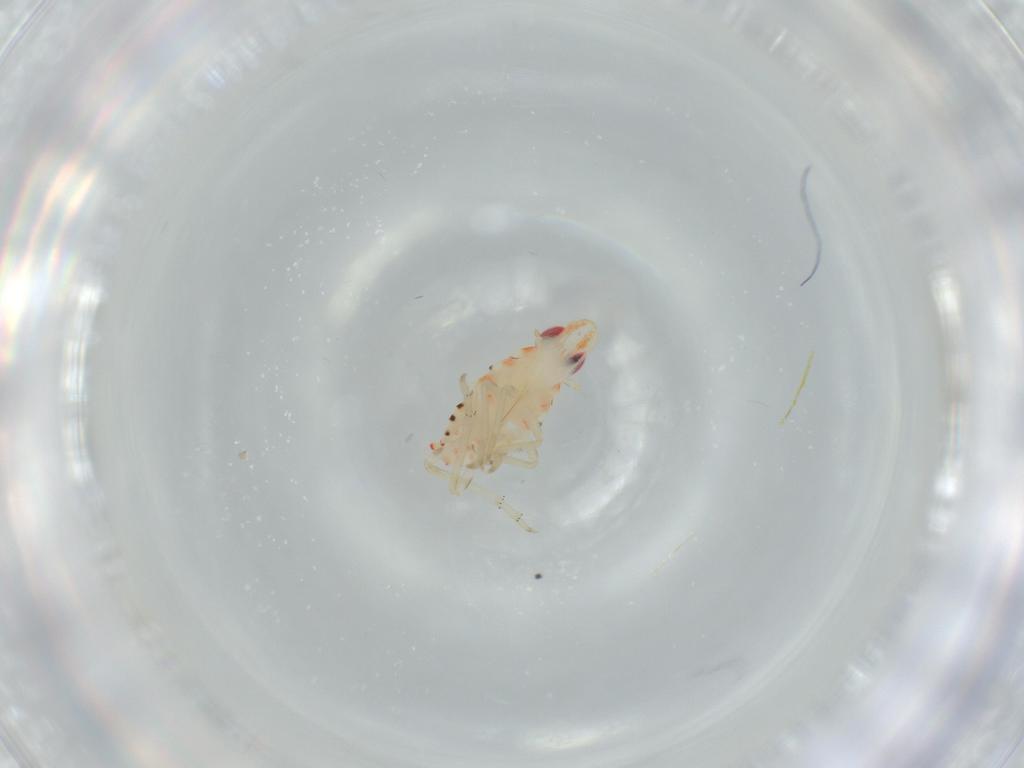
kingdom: Animalia
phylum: Arthropoda
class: Insecta
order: Hemiptera
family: Tropiduchidae
